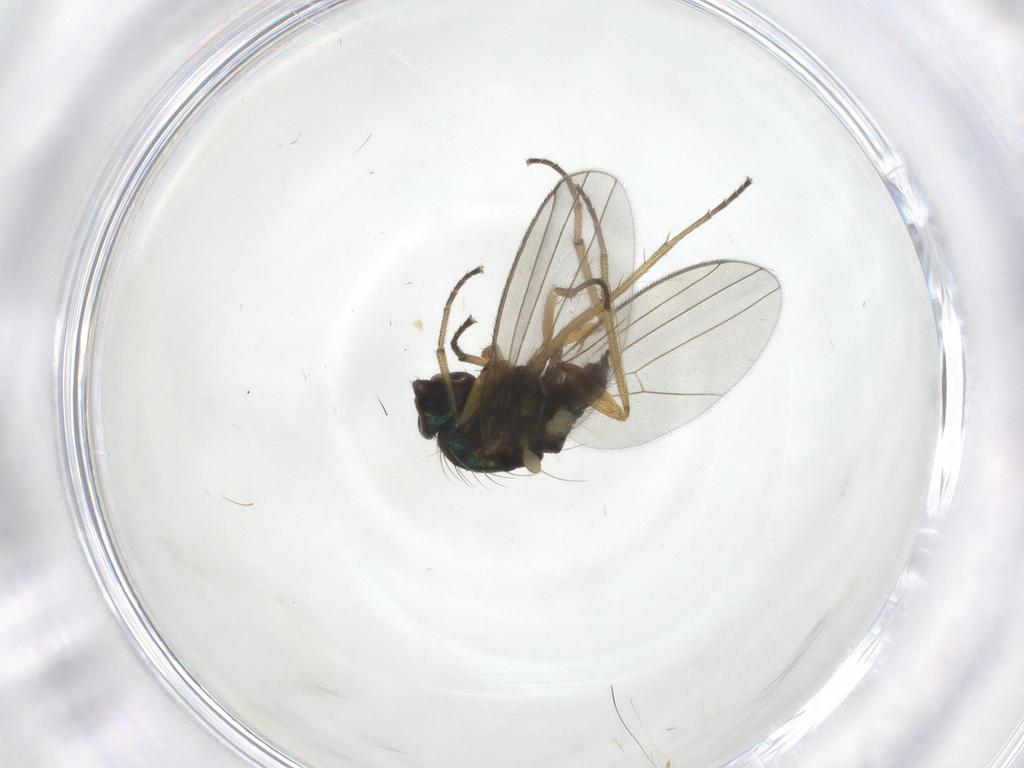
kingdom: Animalia
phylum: Arthropoda
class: Insecta
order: Diptera
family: Dolichopodidae
